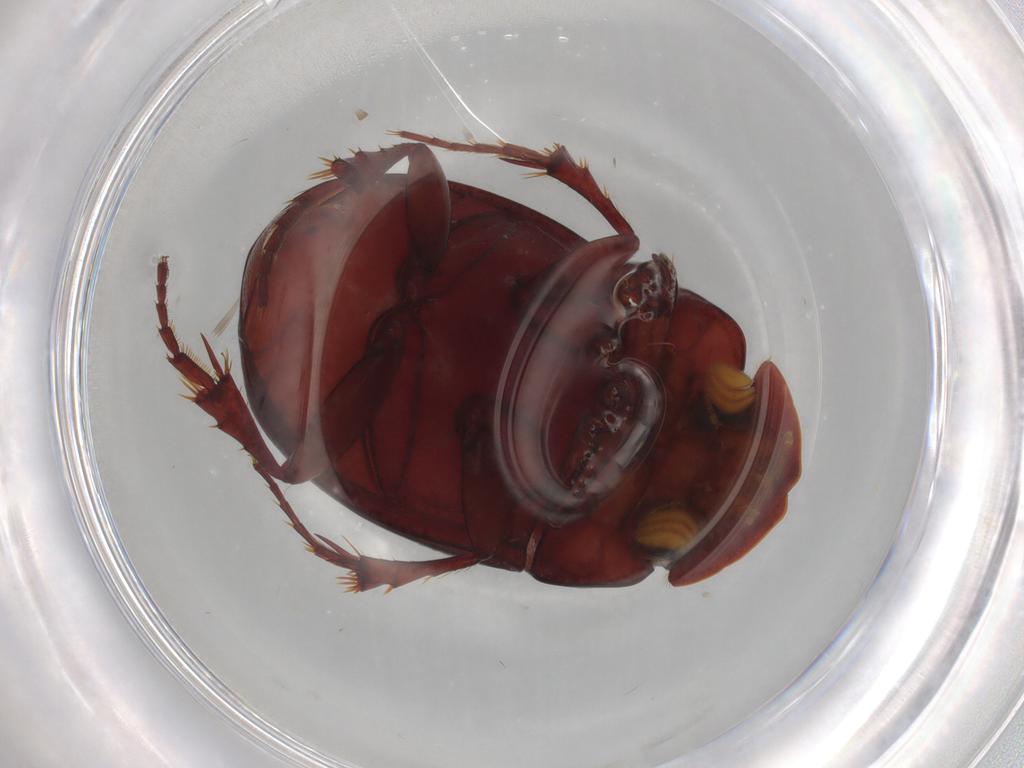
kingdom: Animalia
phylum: Arthropoda
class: Insecta
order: Coleoptera
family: Scarabaeidae
